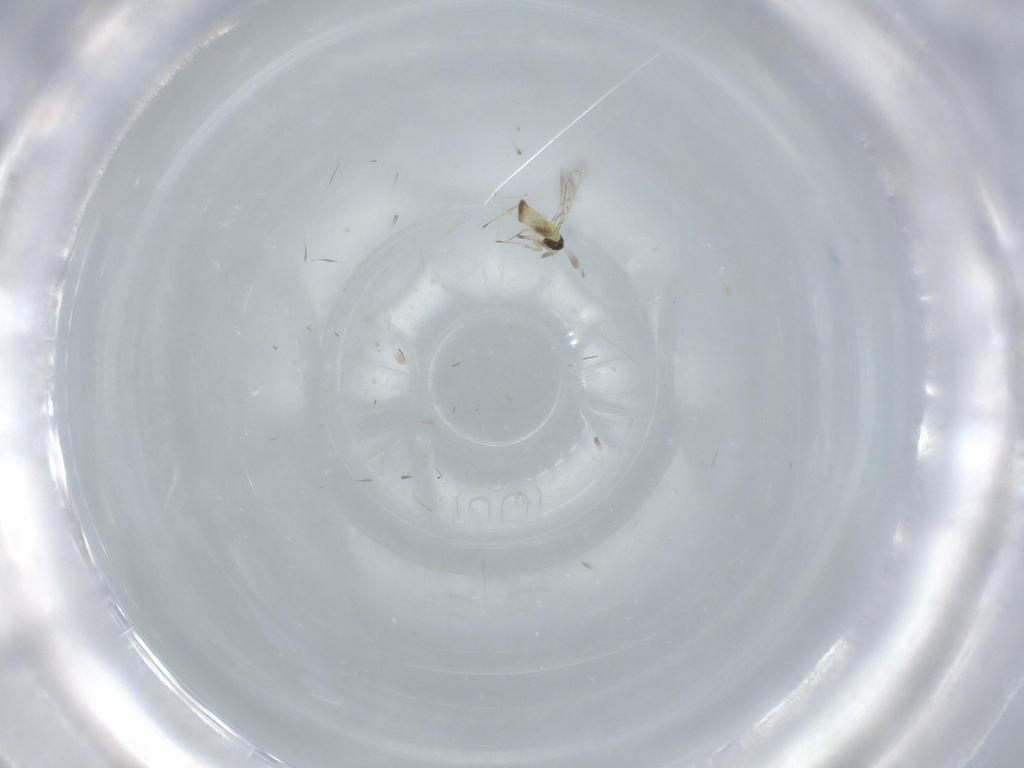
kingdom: Animalia
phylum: Arthropoda
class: Insecta
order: Hymenoptera
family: Trichogrammatidae
